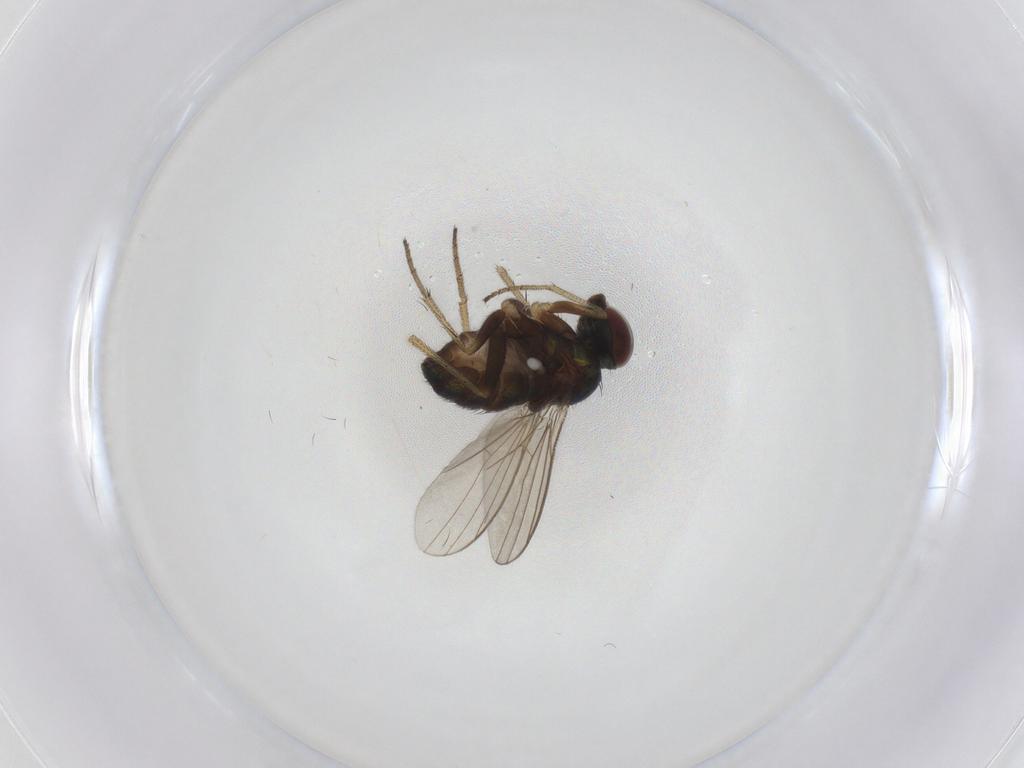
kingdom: Animalia
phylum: Arthropoda
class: Insecta
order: Diptera
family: Dolichopodidae
